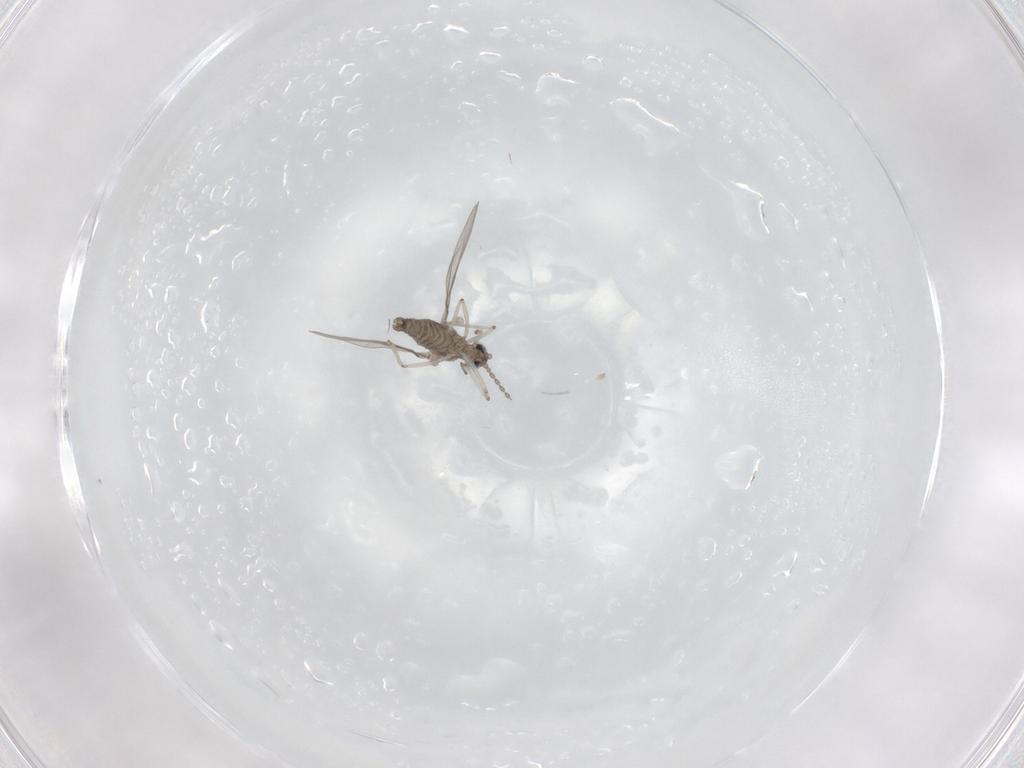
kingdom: Animalia
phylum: Arthropoda
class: Insecta
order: Diptera
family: Cecidomyiidae
